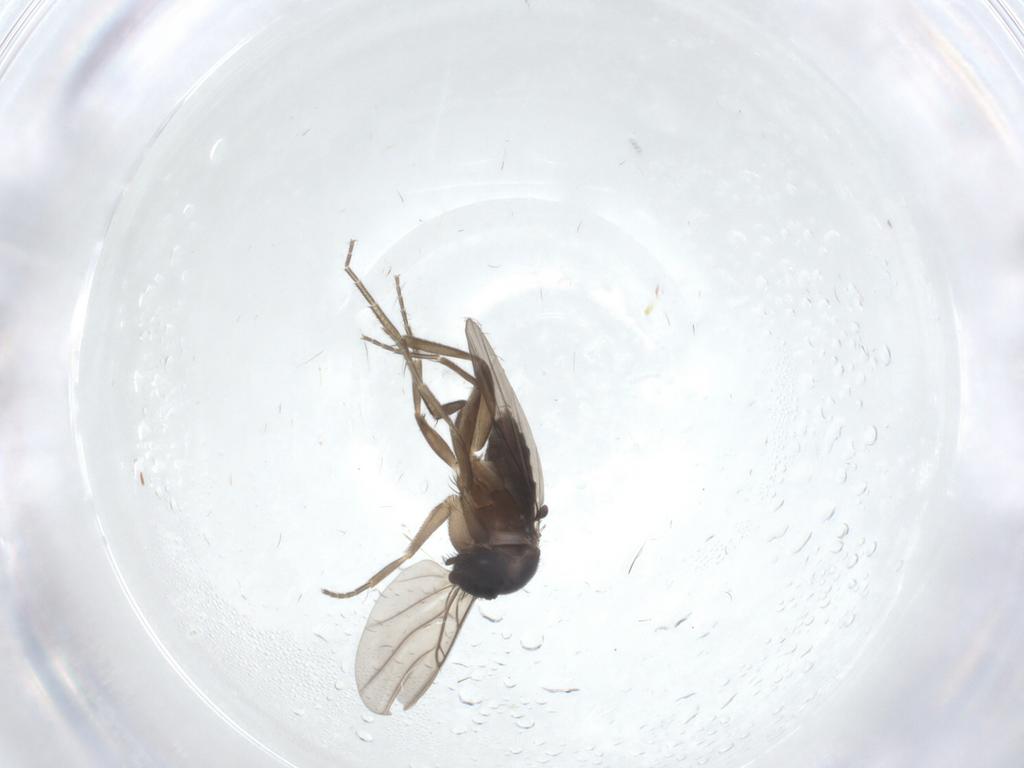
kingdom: Animalia
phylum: Arthropoda
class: Insecta
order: Diptera
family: Phoridae
